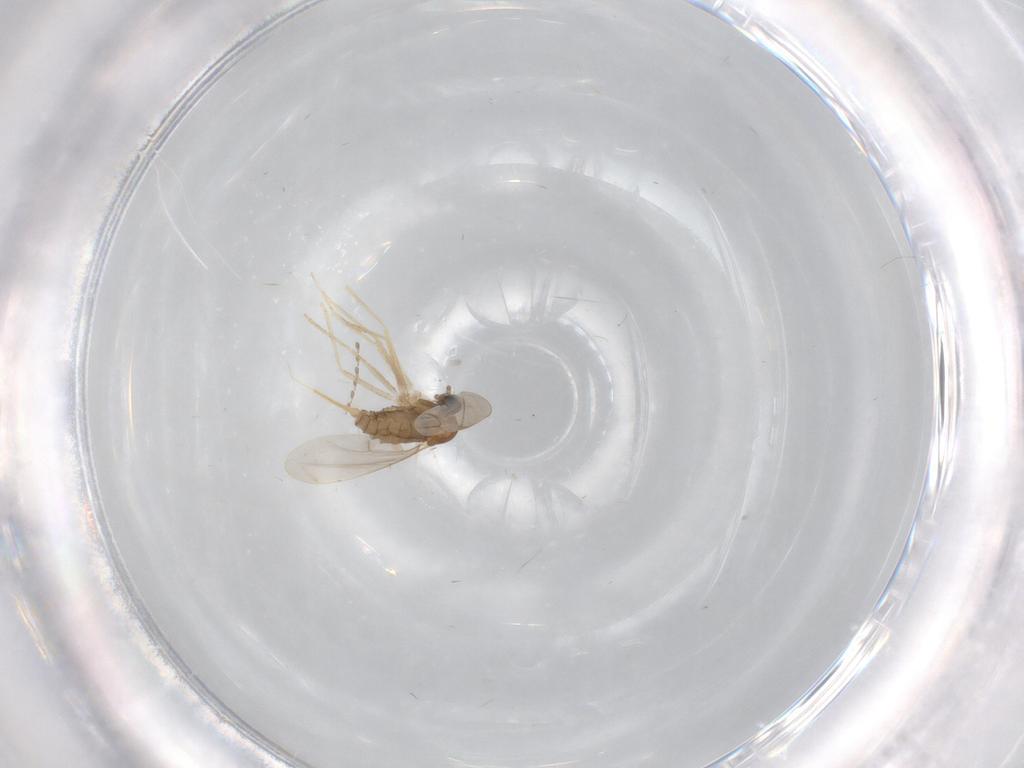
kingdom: Animalia
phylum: Arthropoda
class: Insecta
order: Diptera
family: Cecidomyiidae
